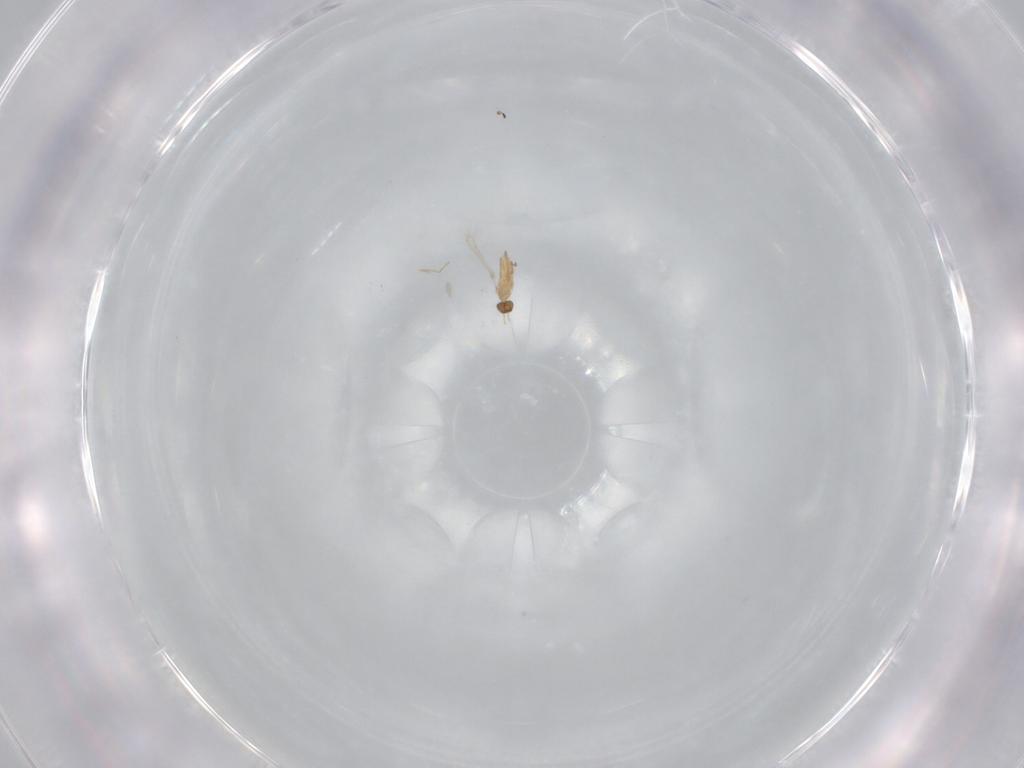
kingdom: Animalia
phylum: Arthropoda
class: Insecta
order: Hymenoptera
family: Mymaridae
